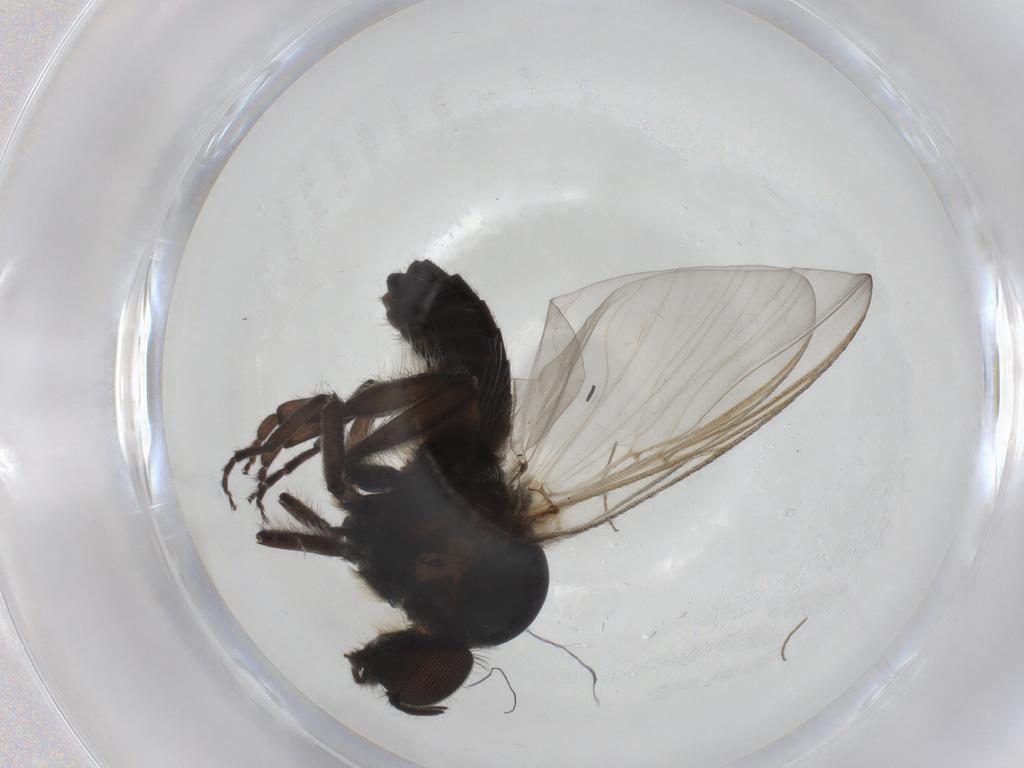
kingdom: Animalia
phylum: Arthropoda
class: Insecta
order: Diptera
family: Simuliidae
